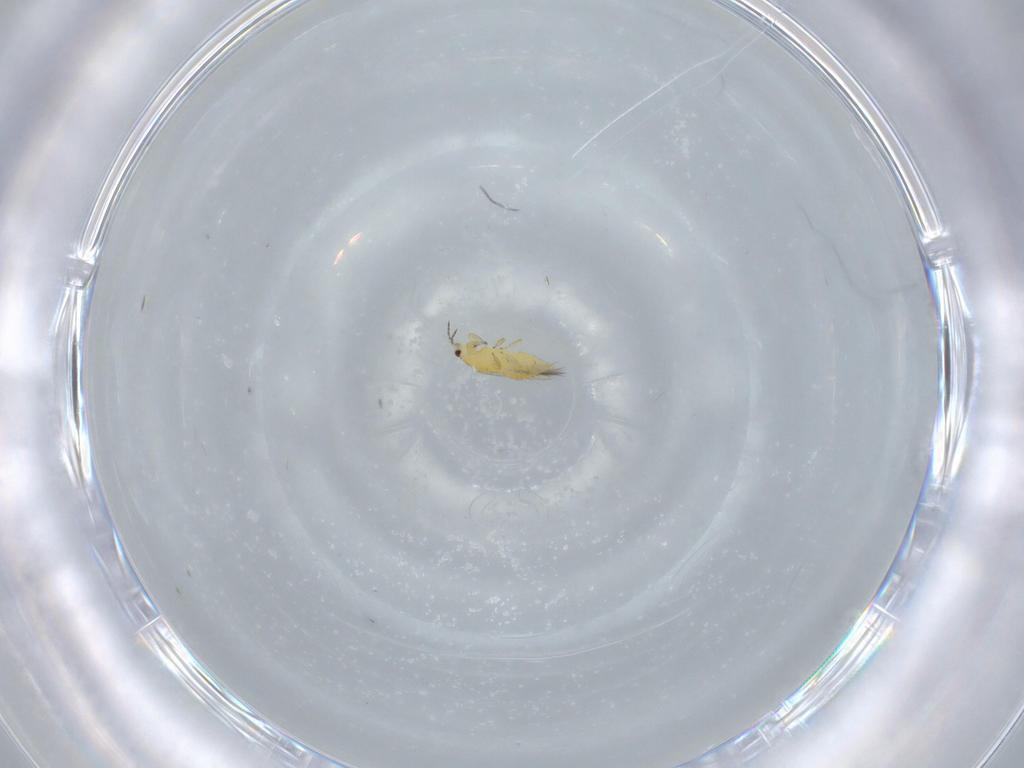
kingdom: Animalia
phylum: Arthropoda
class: Insecta
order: Thysanoptera
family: Thripidae
